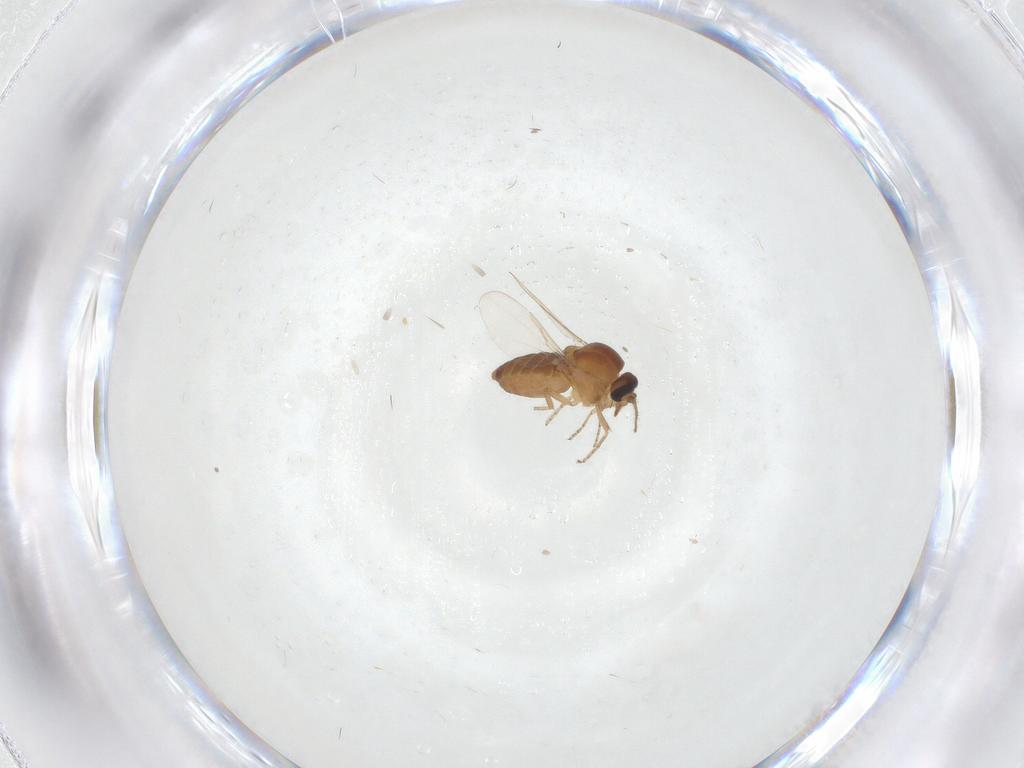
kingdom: Animalia
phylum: Arthropoda
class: Insecta
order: Diptera
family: Ceratopogonidae
